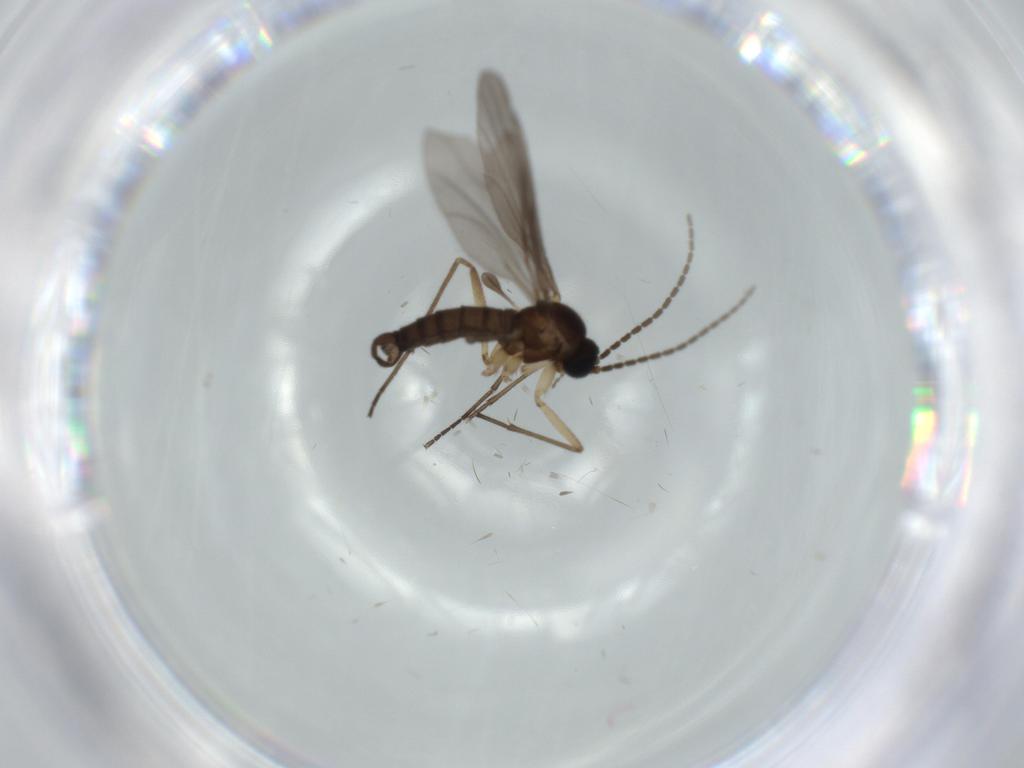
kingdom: Animalia
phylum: Arthropoda
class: Insecta
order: Diptera
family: Sciaridae
